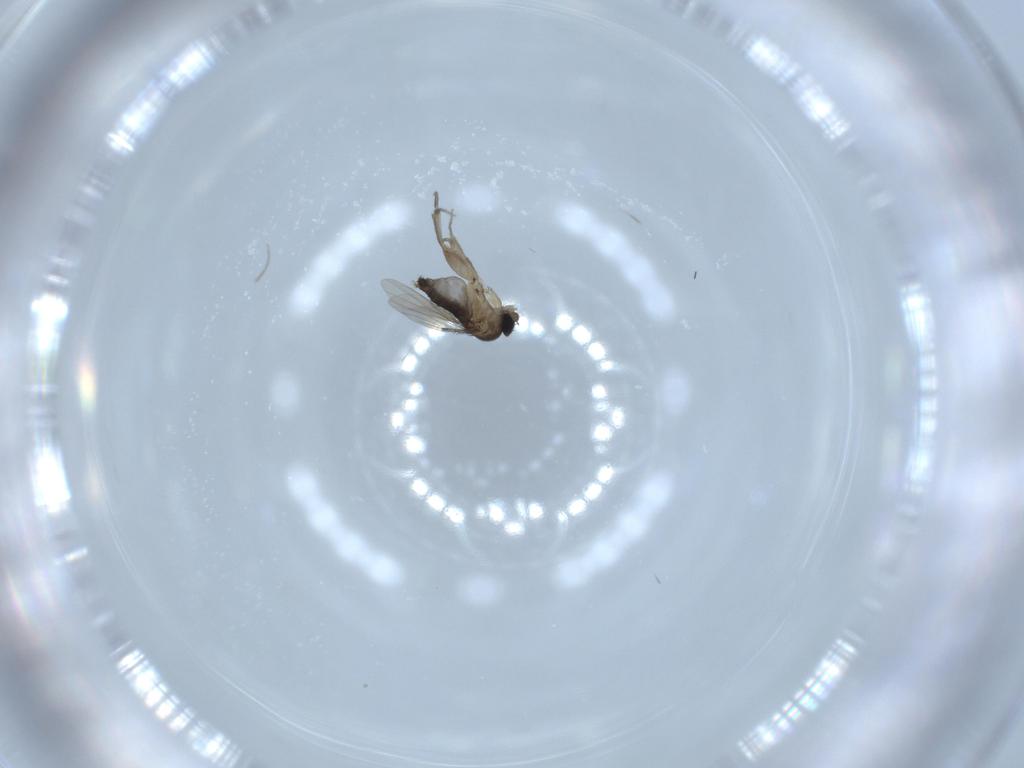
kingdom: Animalia
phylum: Arthropoda
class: Insecta
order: Diptera
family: Phoridae
